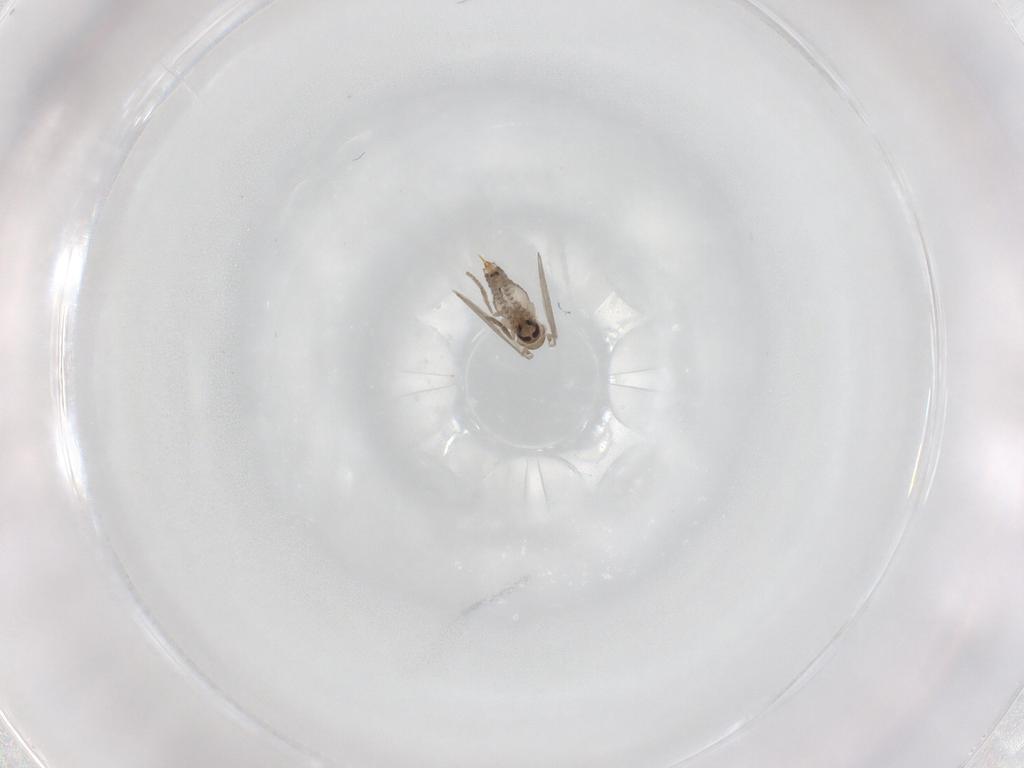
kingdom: Animalia
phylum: Arthropoda
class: Insecta
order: Diptera
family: Psychodidae
